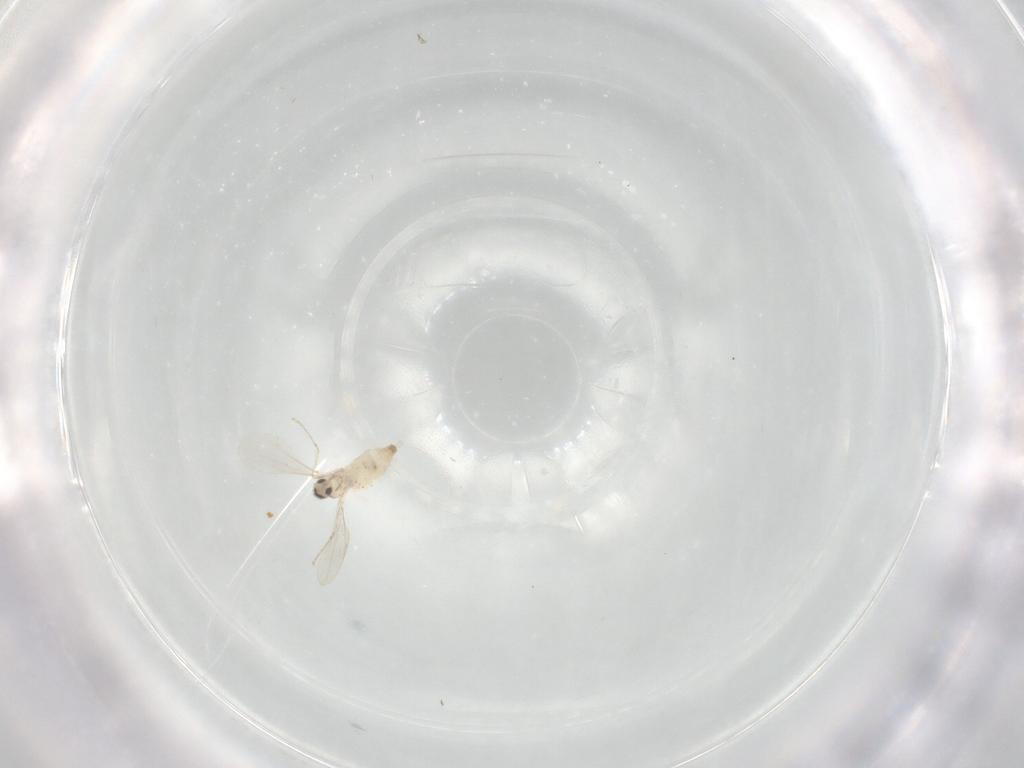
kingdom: Animalia
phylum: Arthropoda
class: Insecta
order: Diptera
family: Cecidomyiidae
